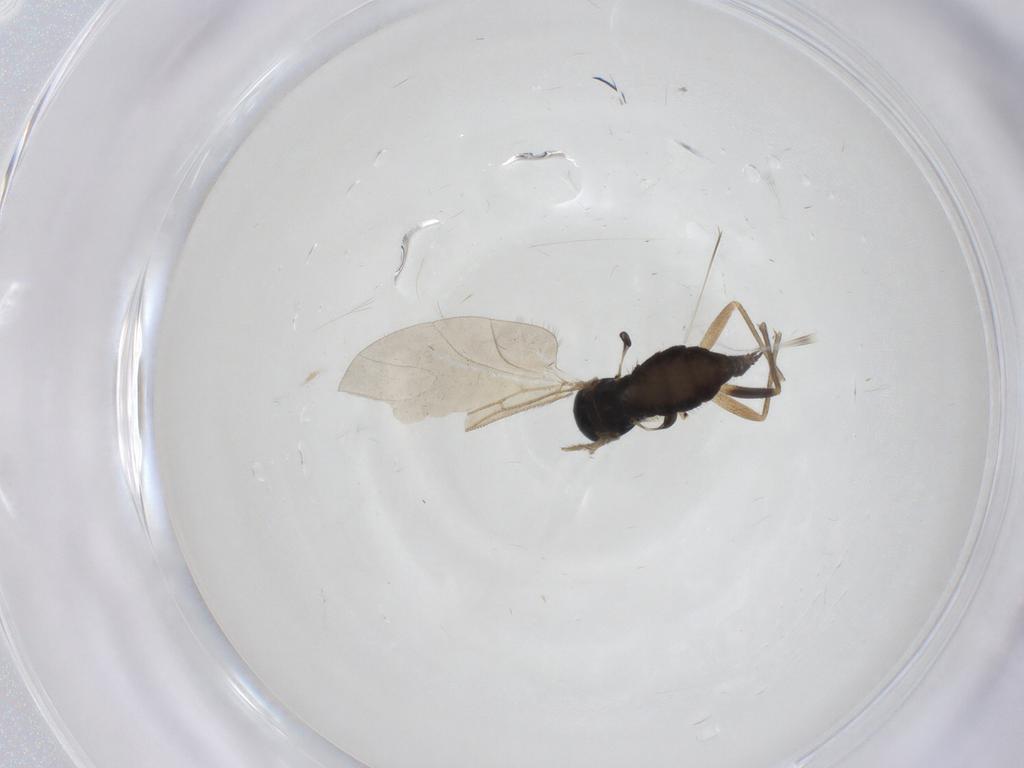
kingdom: Animalia
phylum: Arthropoda
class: Insecta
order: Diptera
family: Sciaridae
